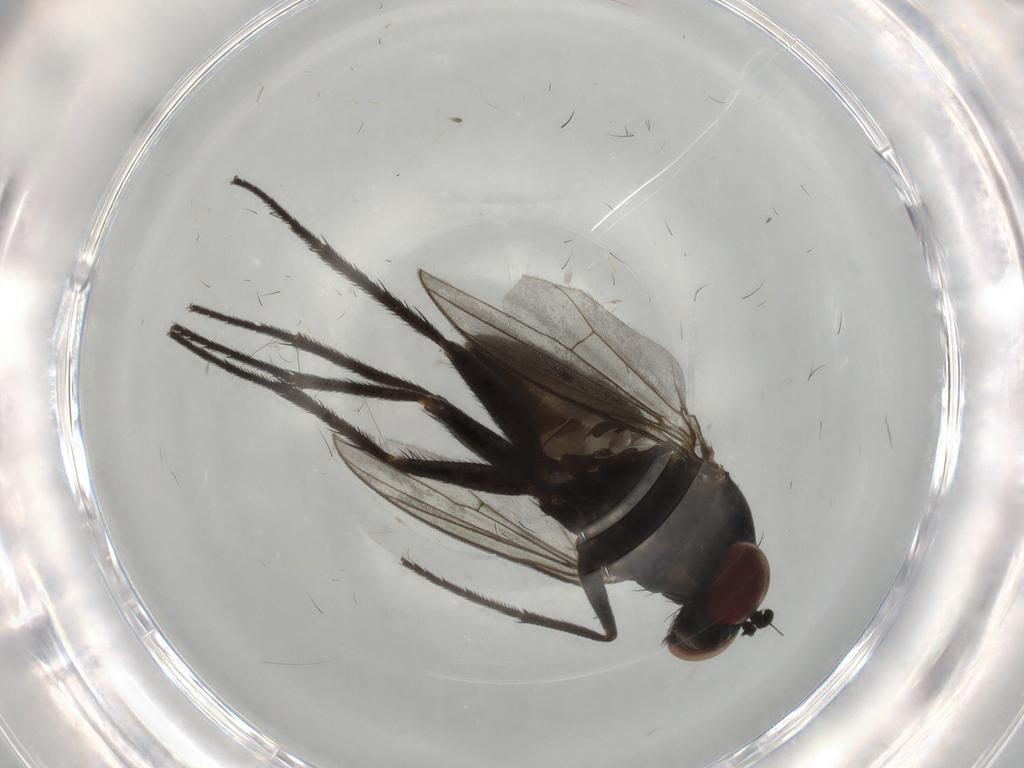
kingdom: Animalia
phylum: Arthropoda
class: Insecta
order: Diptera
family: Dolichopodidae
